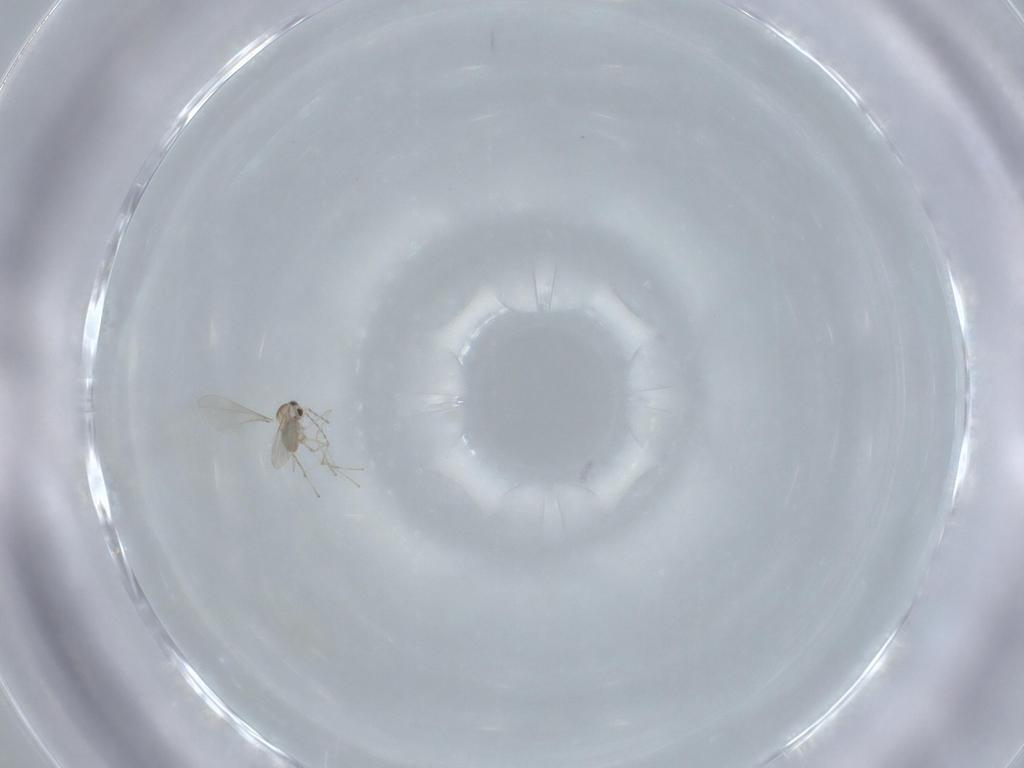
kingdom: Animalia
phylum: Arthropoda
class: Insecta
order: Diptera
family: Cecidomyiidae
